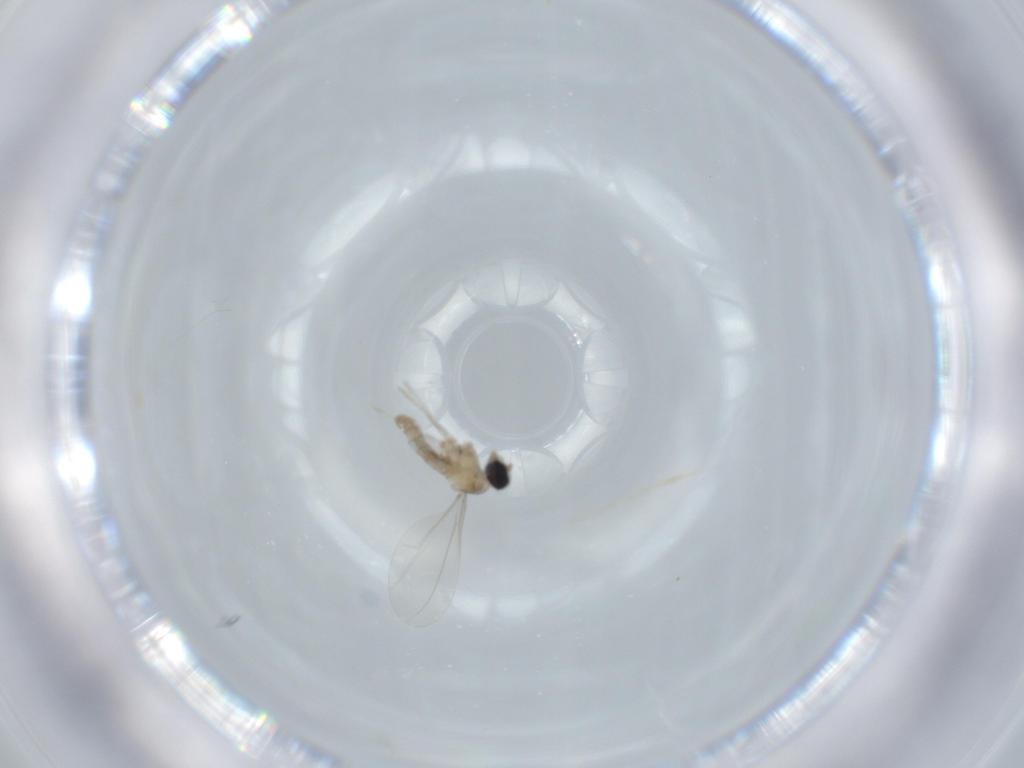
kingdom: Animalia
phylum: Arthropoda
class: Insecta
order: Diptera
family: Cecidomyiidae
